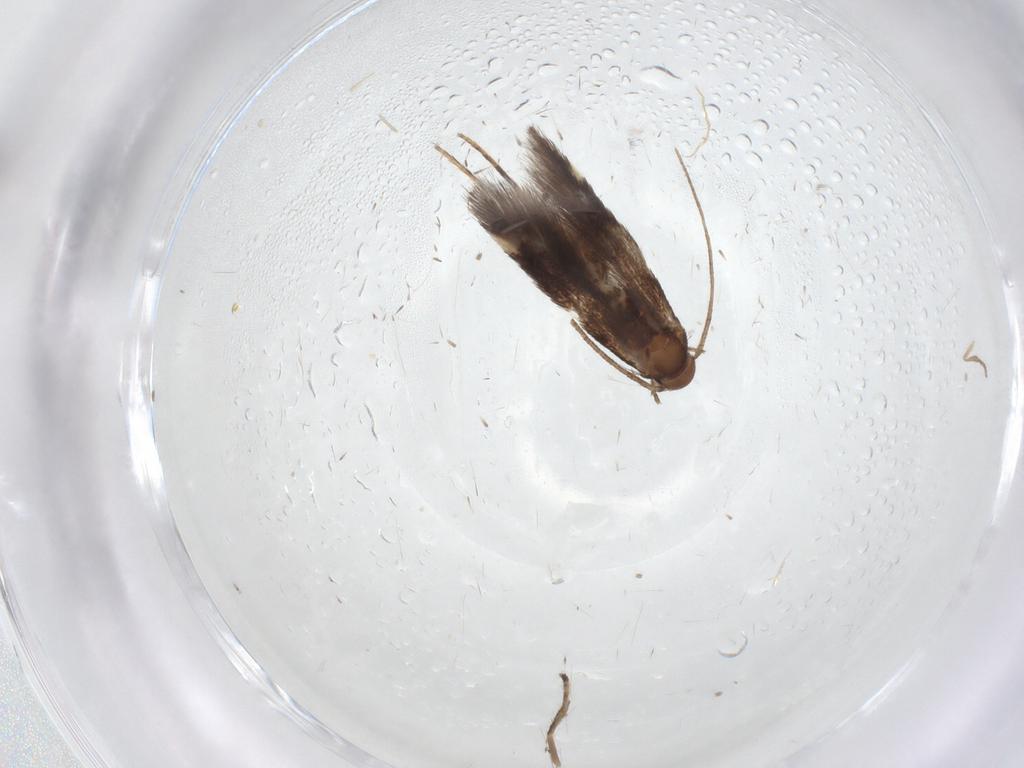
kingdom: Animalia
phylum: Arthropoda
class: Insecta
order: Lepidoptera
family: Gelechiidae
